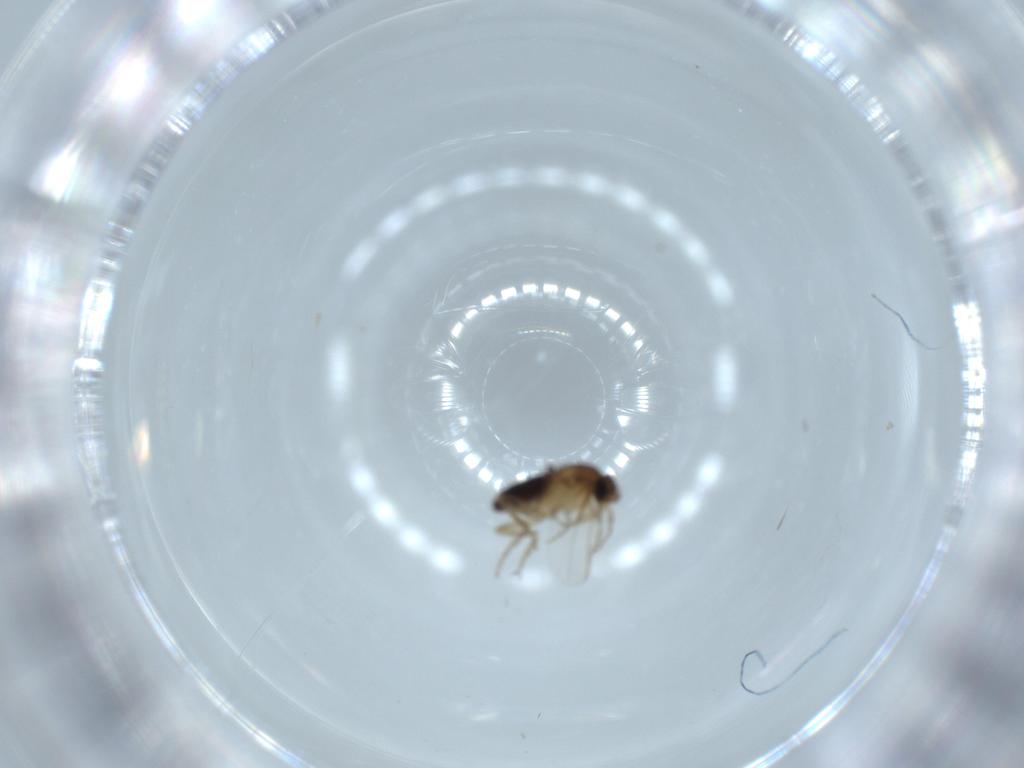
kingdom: Animalia
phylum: Arthropoda
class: Insecta
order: Diptera
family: Phoridae
